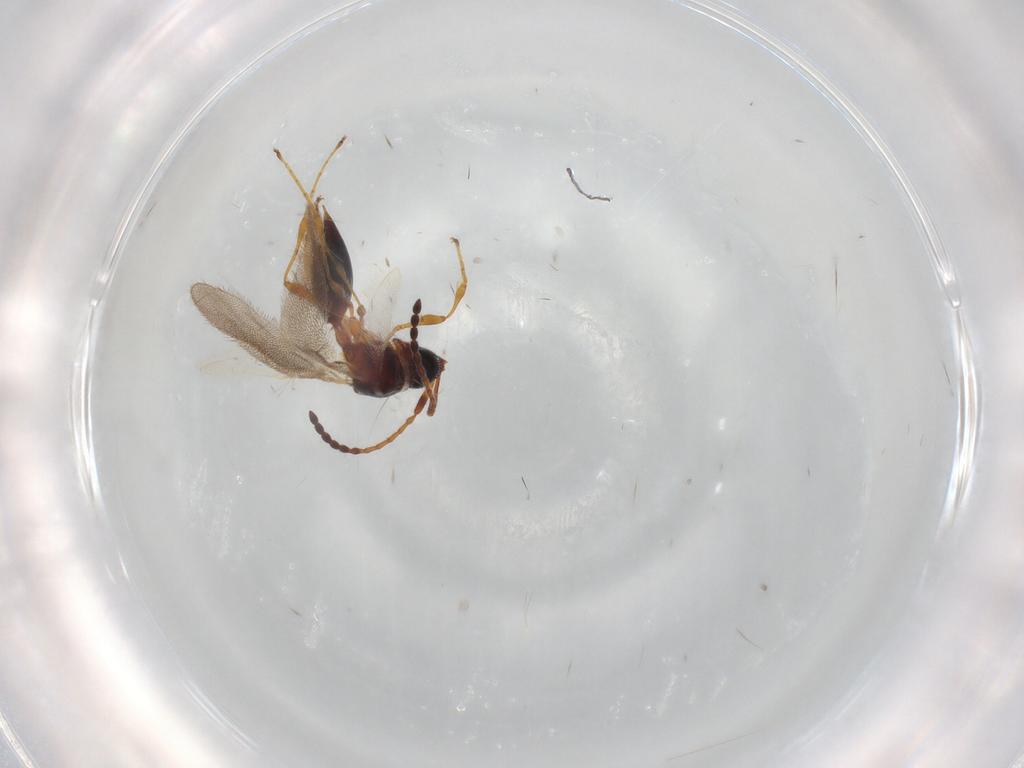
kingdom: Animalia
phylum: Arthropoda
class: Insecta
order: Hymenoptera
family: Diapriidae
